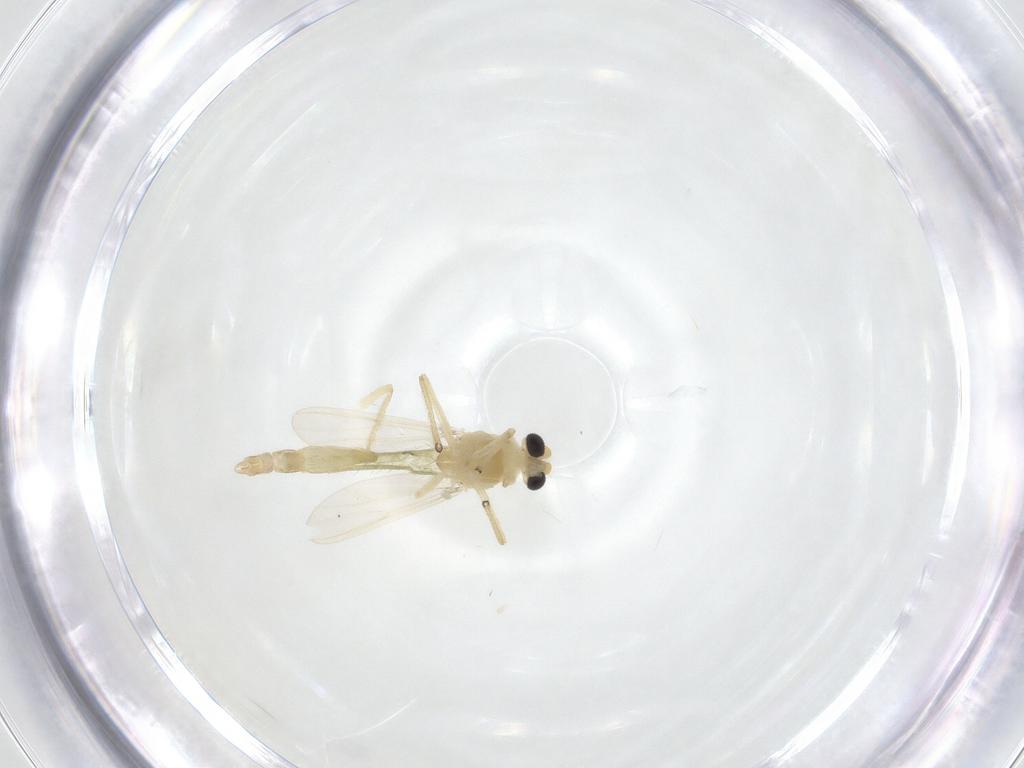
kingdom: Animalia
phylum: Arthropoda
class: Insecta
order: Diptera
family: Chironomidae
